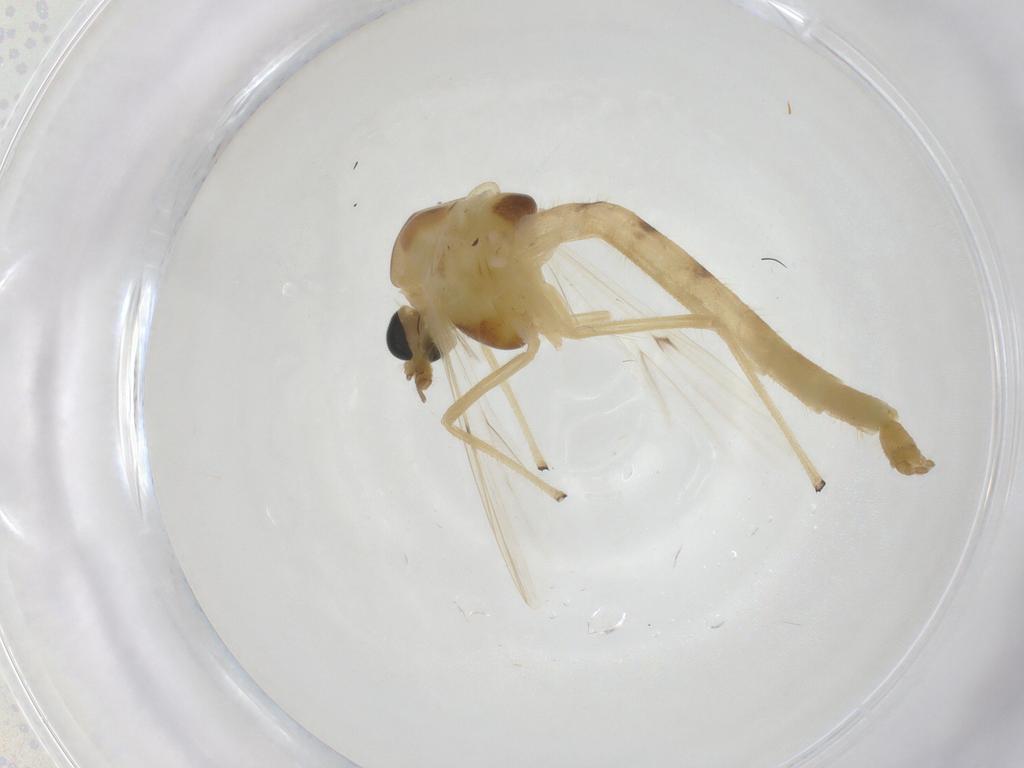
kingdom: Animalia
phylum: Arthropoda
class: Insecta
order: Diptera
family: Chironomidae
